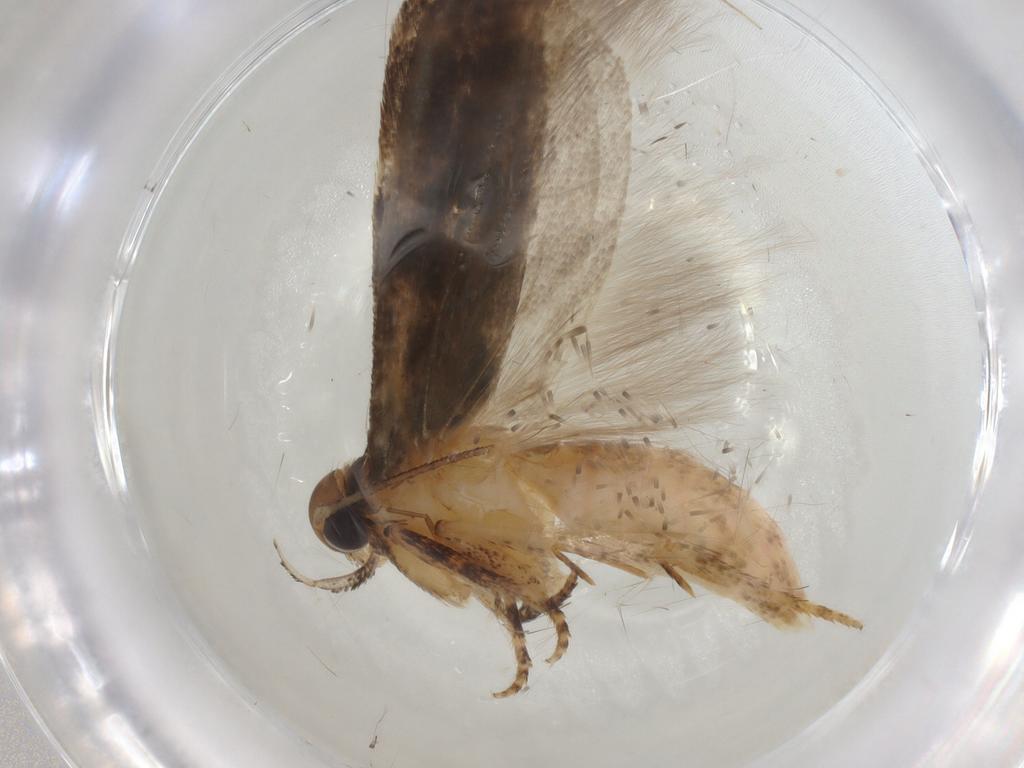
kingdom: Animalia
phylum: Arthropoda
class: Insecta
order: Lepidoptera
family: Gelechiidae
